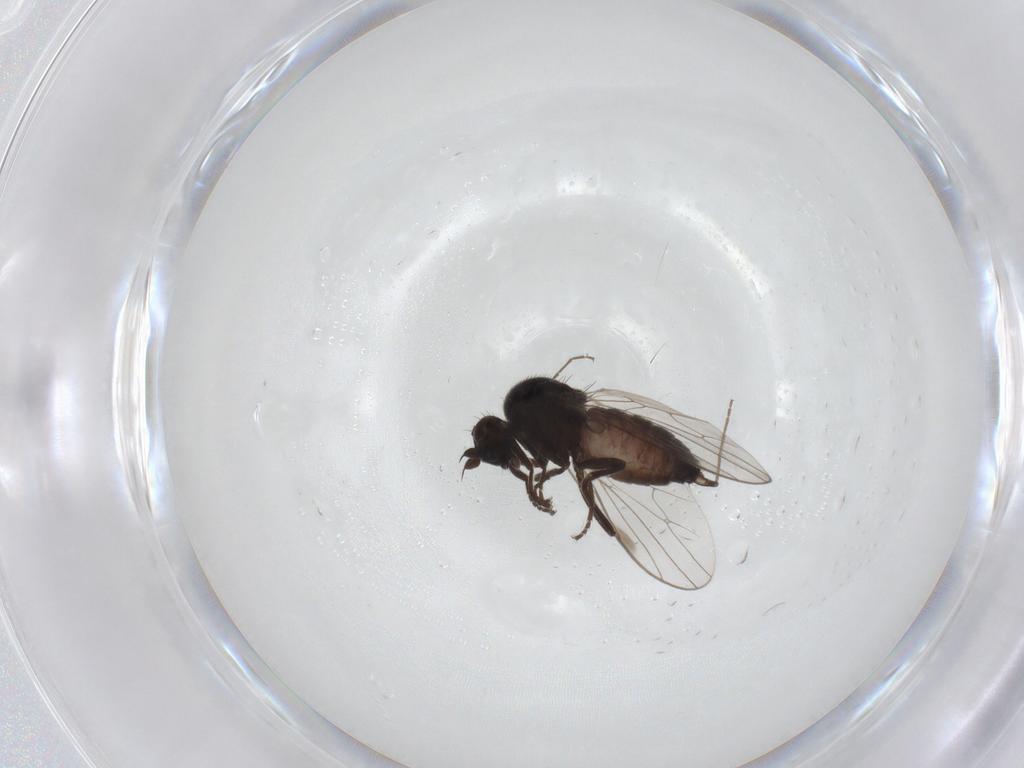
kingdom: Animalia
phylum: Arthropoda
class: Insecta
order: Diptera
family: Hybotidae
